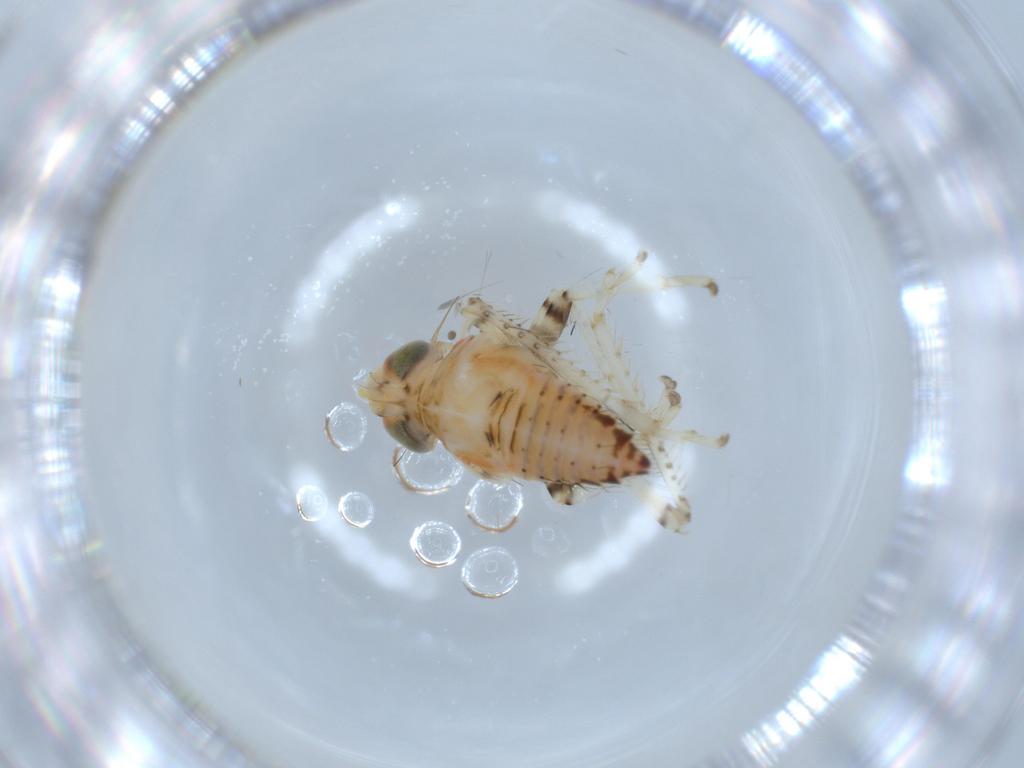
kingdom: Animalia
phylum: Arthropoda
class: Insecta
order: Hemiptera
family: Cicadellidae
